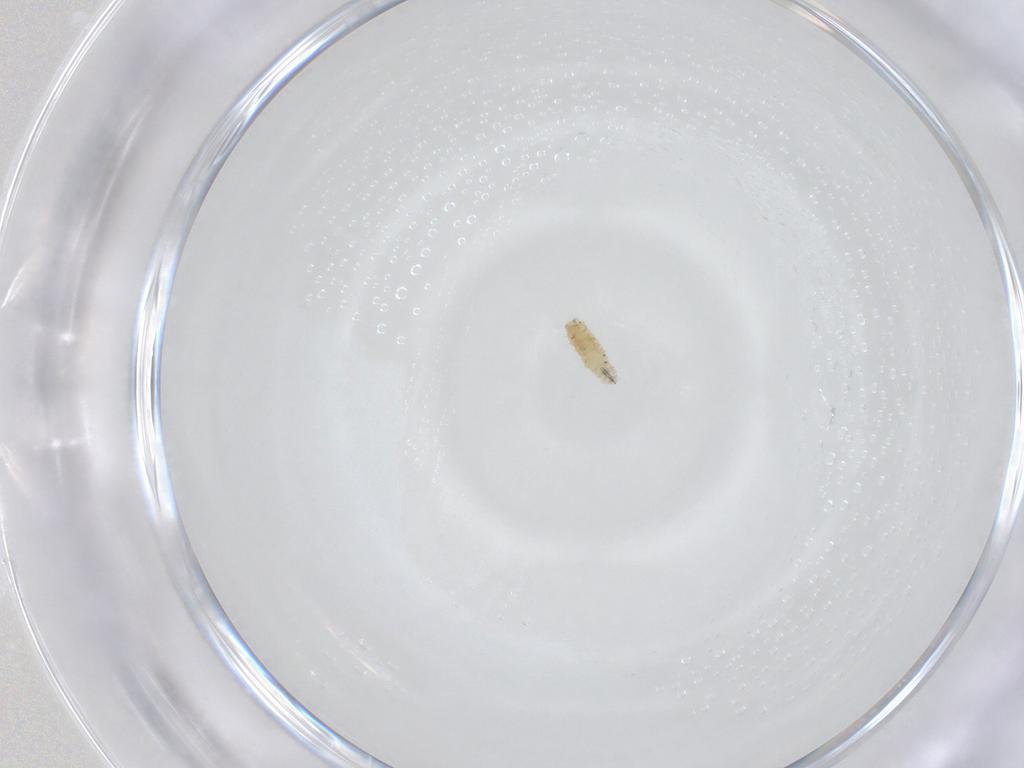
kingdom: Animalia
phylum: Arthropoda
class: Insecta
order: Diptera
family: Sarcophagidae
